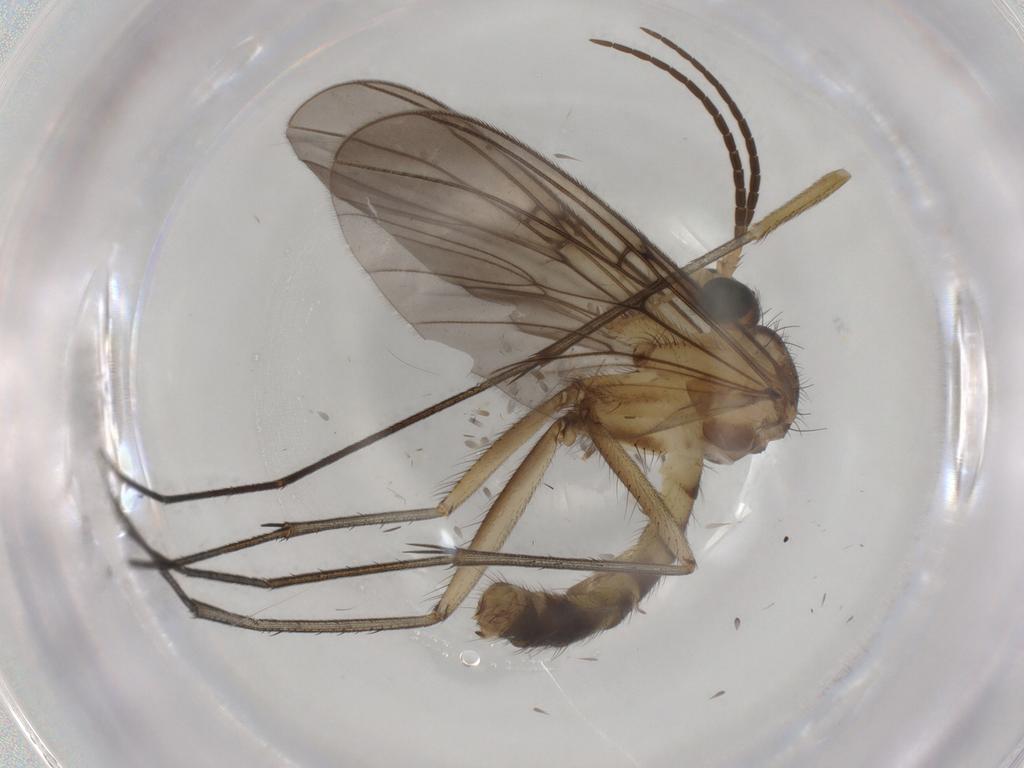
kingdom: Animalia
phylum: Arthropoda
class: Insecta
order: Diptera
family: Mycetophilidae
